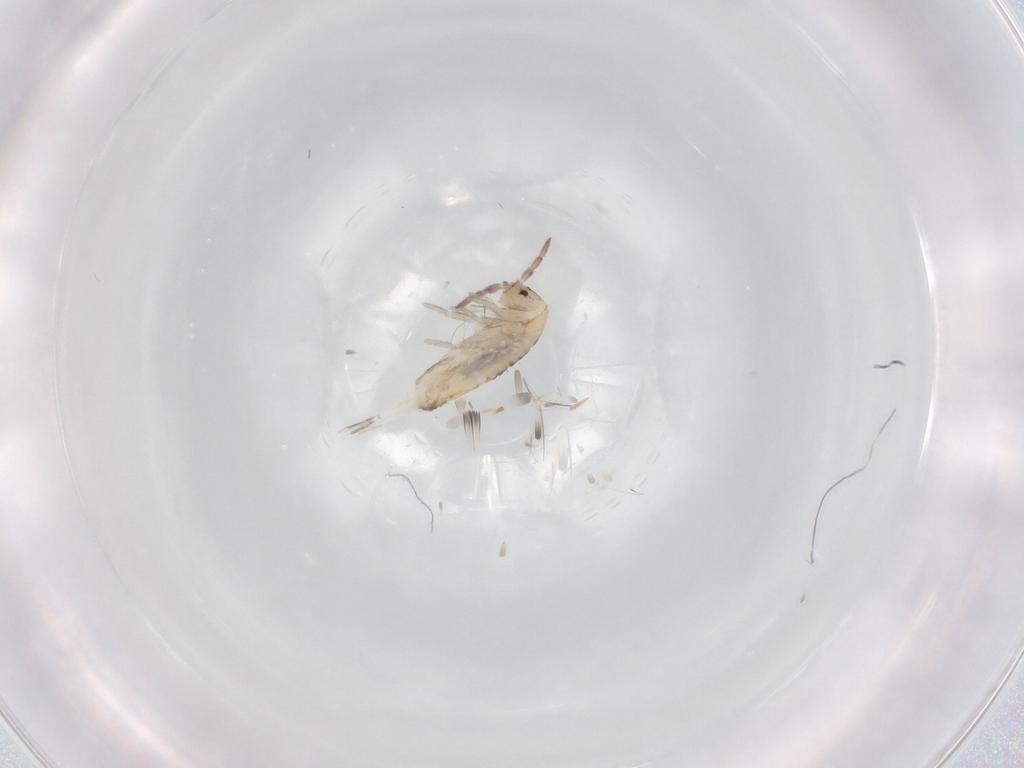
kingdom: Animalia
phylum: Arthropoda
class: Collembola
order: Entomobryomorpha
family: Entomobryidae
